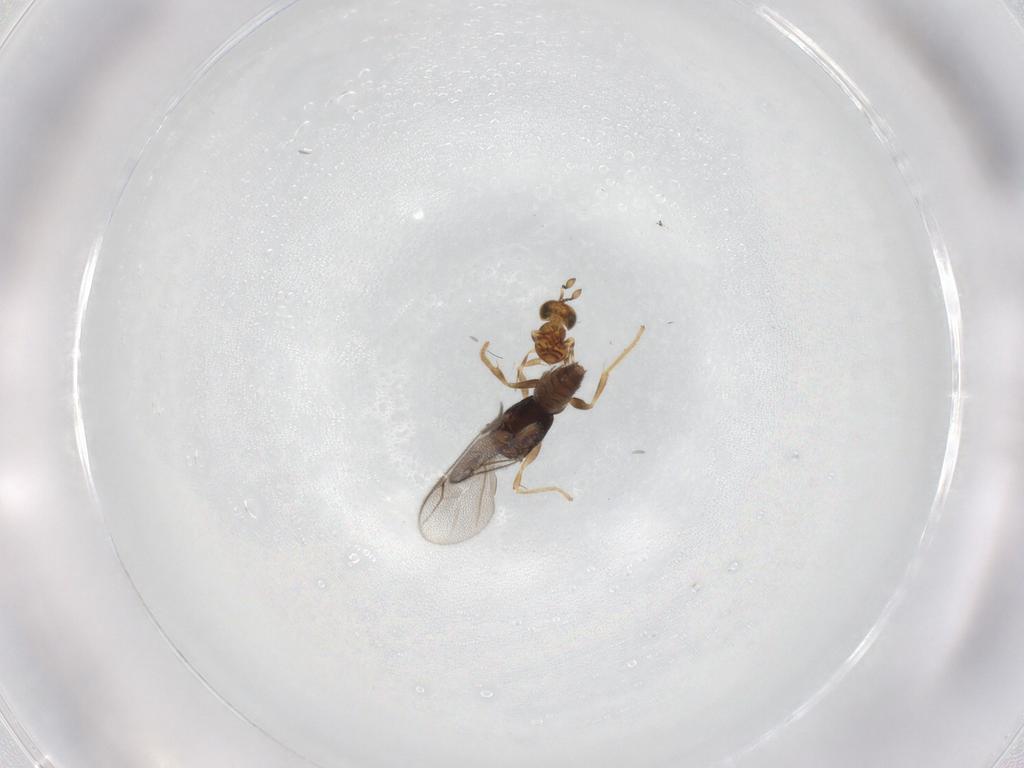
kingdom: Animalia
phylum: Arthropoda
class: Insecta
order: Hymenoptera
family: Dryinidae
